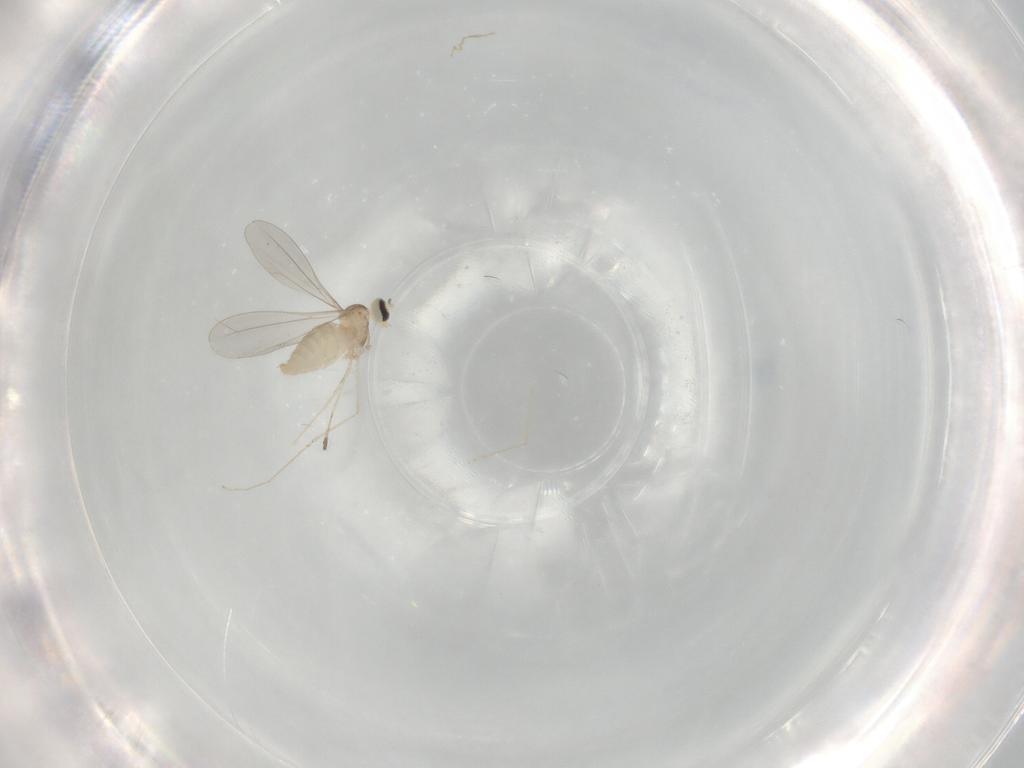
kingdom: Animalia
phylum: Arthropoda
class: Insecta
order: Diptera
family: Cecidomyiidae
